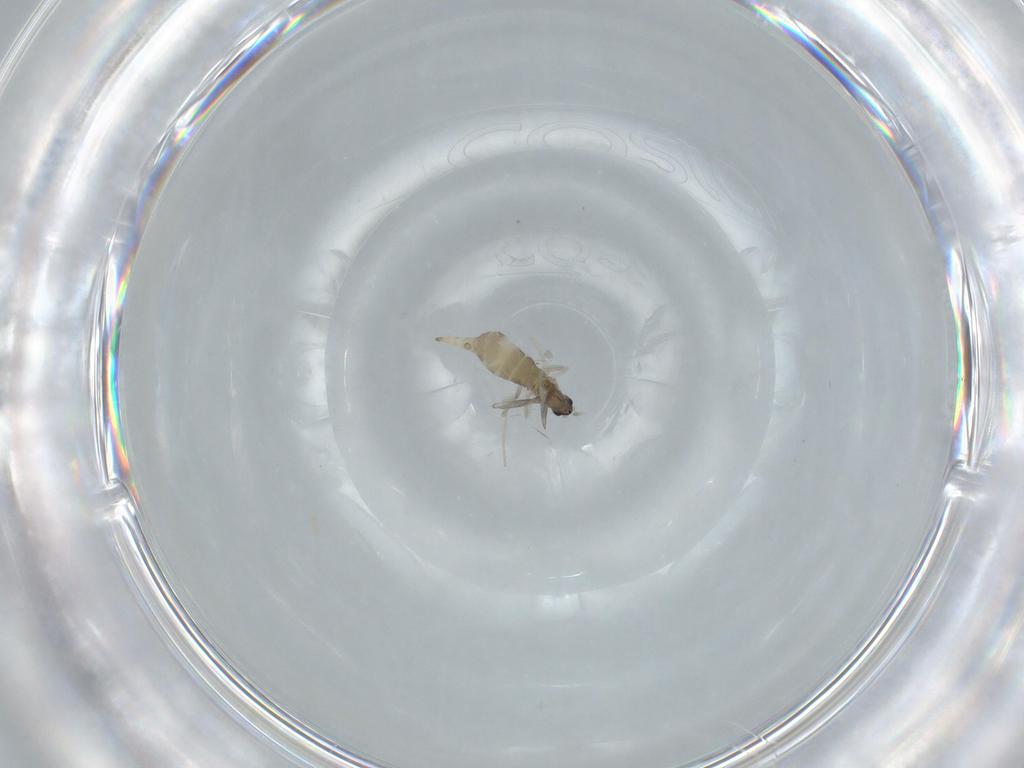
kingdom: Animalia
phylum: Arthropoda
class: Insecta
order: Diptera
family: Cecidomyiidae
